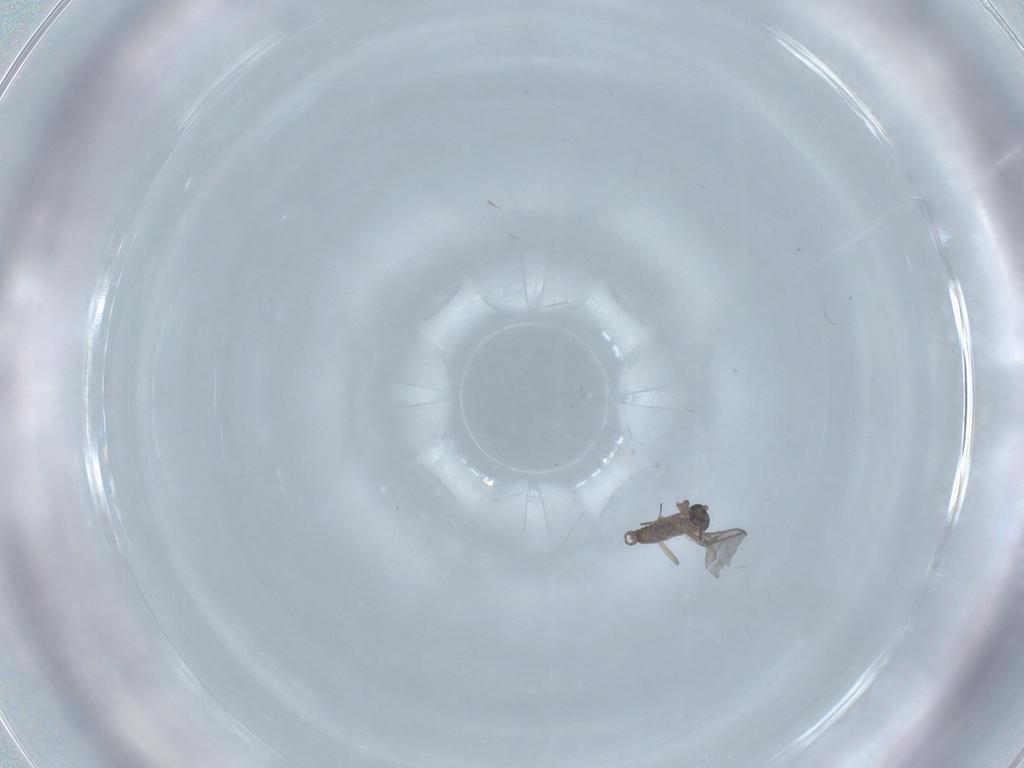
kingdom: Animalia
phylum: Arthropoda
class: Insecta
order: Diptera
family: Sciaridae
